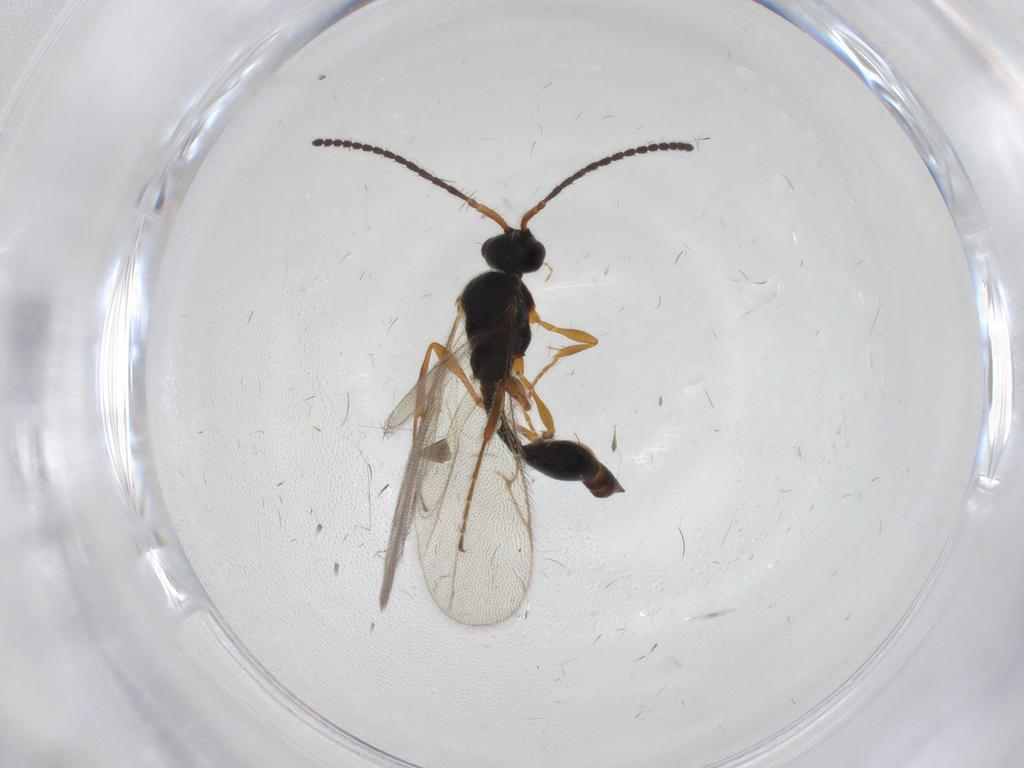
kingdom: Animalia
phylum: Arthropoda
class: Insecta
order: Hymenoptera
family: Diapriidae
